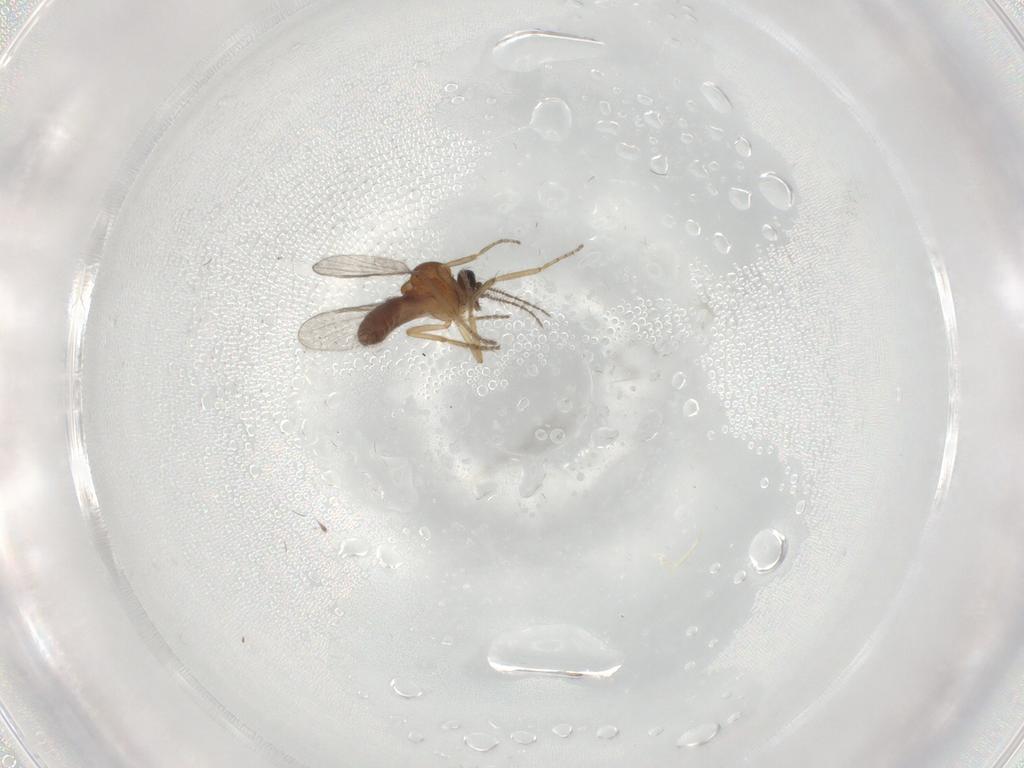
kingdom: Animalia
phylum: Arthropoda
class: Insecta
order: Diptera
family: Ceratopogonidae
